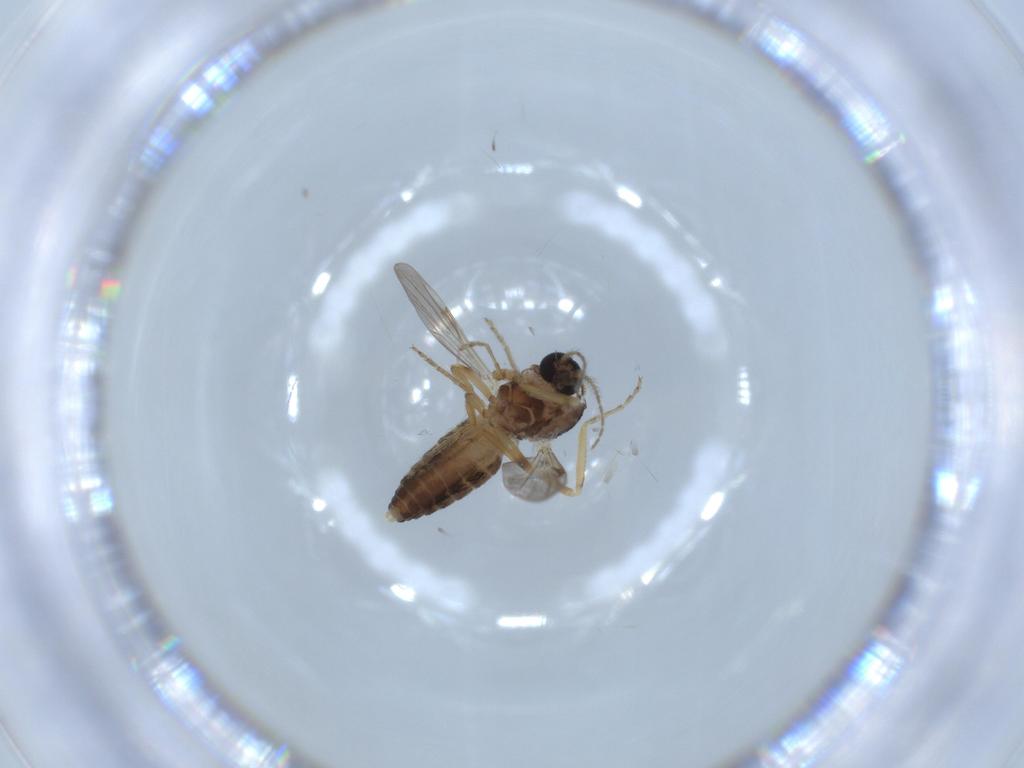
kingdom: Animalia
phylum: Arthropoda
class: Insecta
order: Diptera
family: Ceratopogonidae
